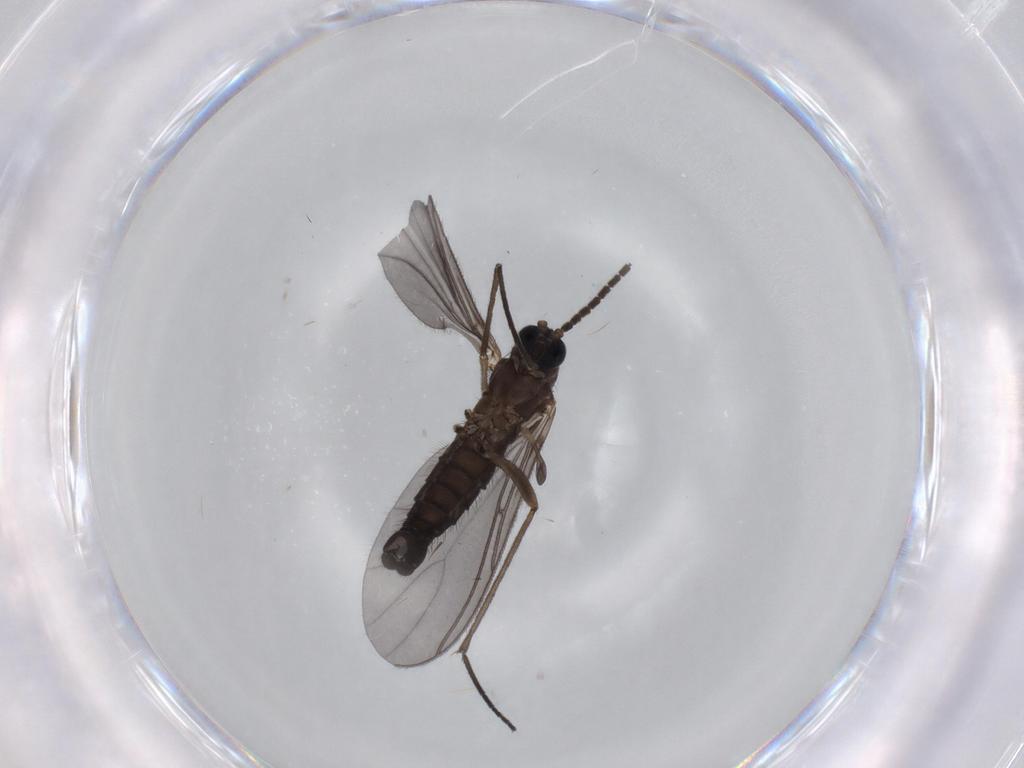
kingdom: Animalia
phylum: Arthropoda
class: Insecta
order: Diptera
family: Sciaridae
